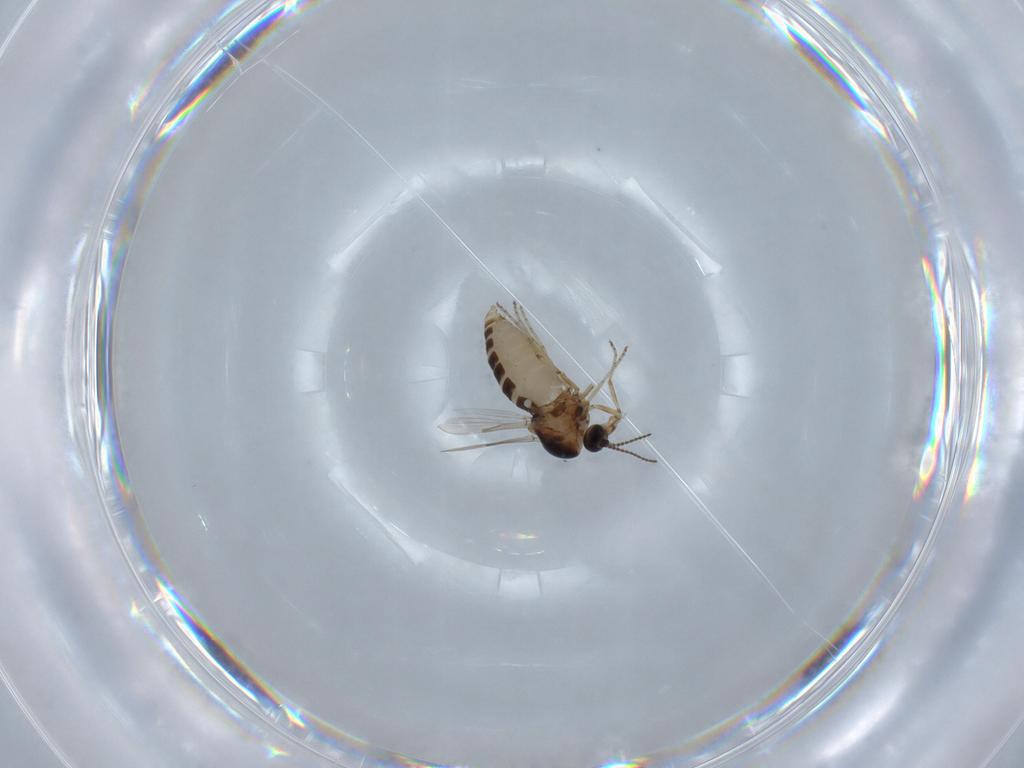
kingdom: Animalia
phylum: Arthropoda
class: Insecta
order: Diptera
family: Ceratopogonidae
